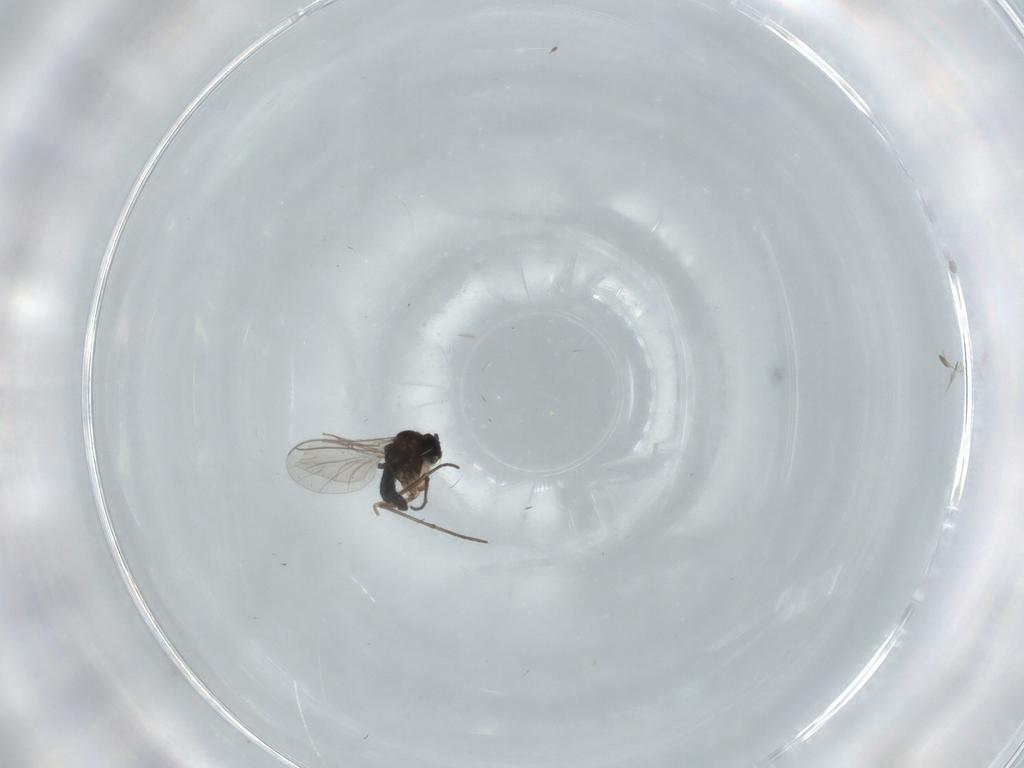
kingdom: Animalia
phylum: Arthropoda
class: Insecta
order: Diptera
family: Sciaridae
